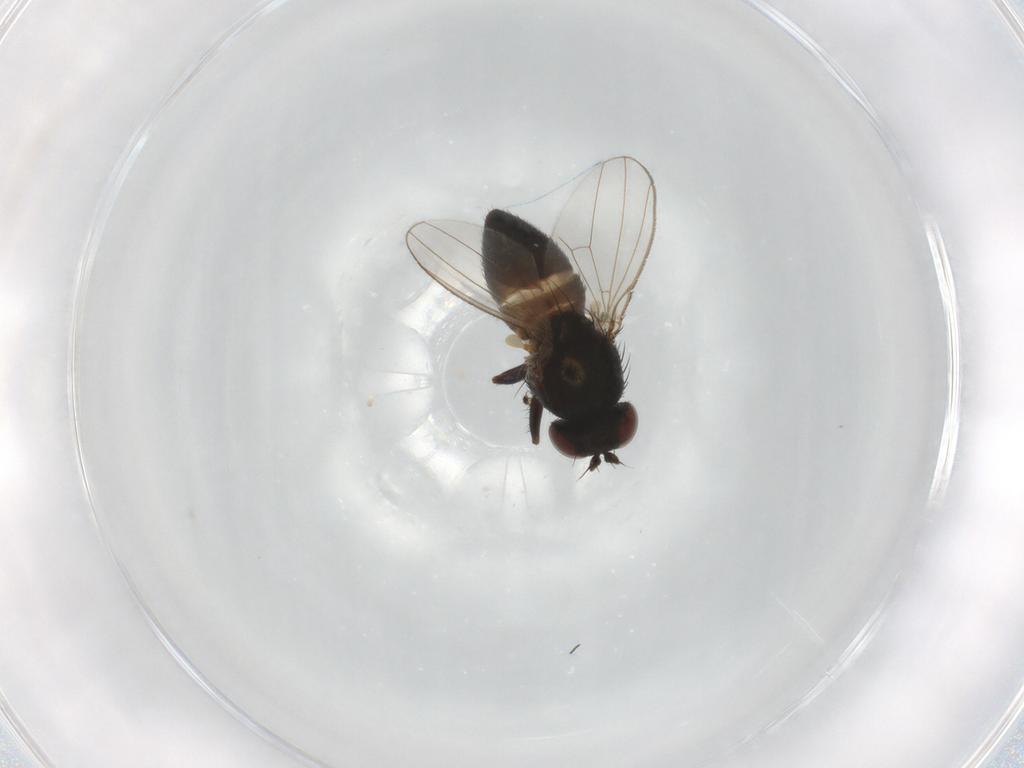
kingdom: Animalia
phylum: Arthropoda
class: Insecta
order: Diptera
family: Ephydridae
